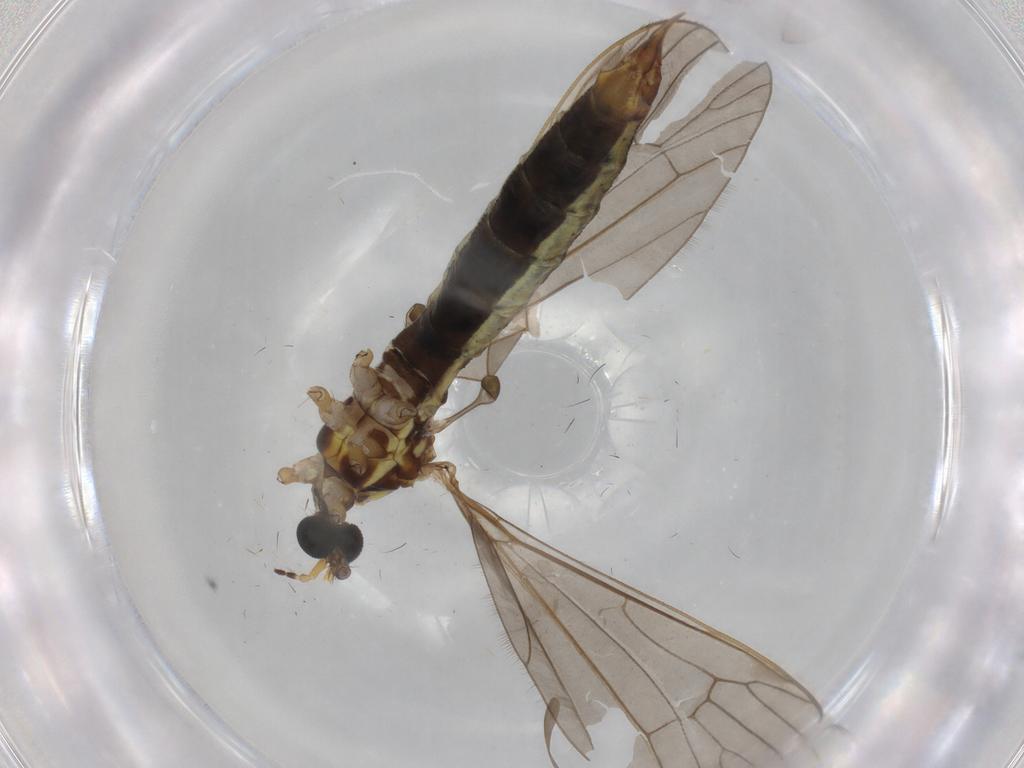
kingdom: Animalia
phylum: Arthropoda
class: Insecta
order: Diptera
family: Limoniidae
